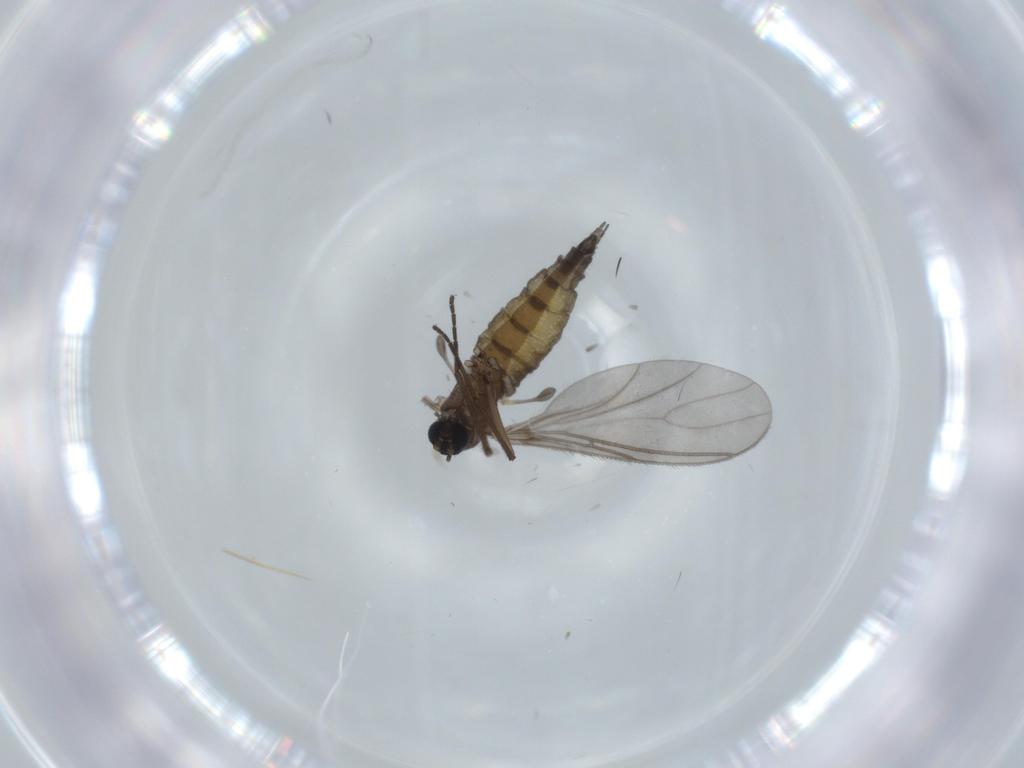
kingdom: Animalia
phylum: Arthropoda
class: Insecta
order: Diptera
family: Sciaridae
